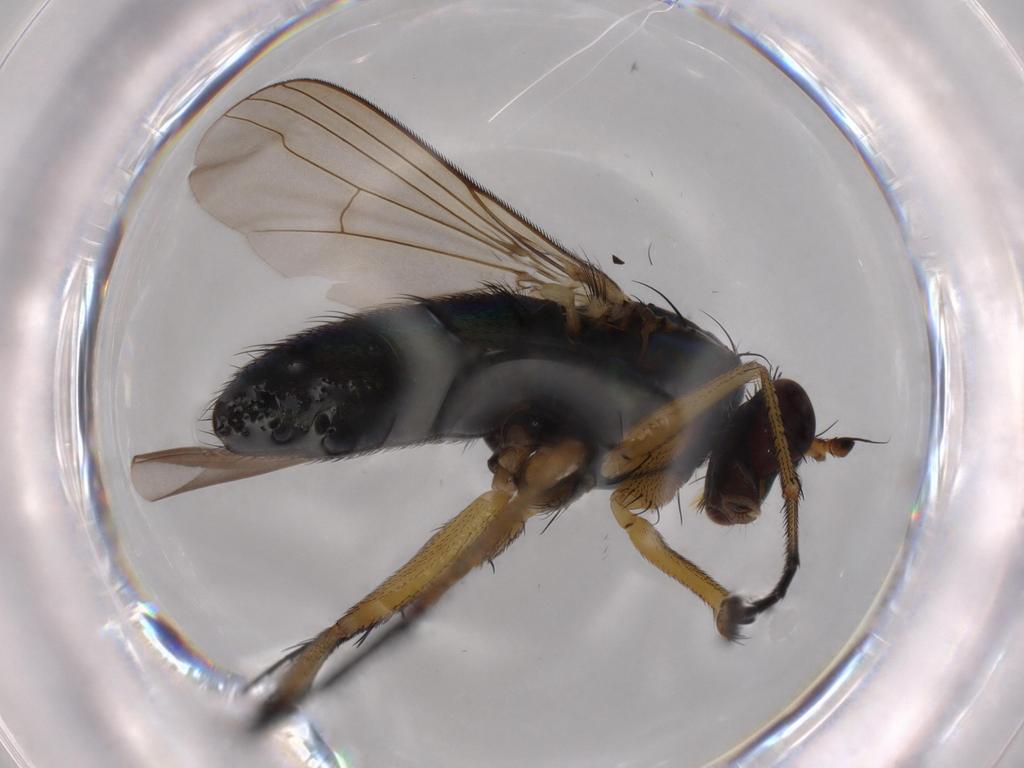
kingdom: Animalia
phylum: Arthropoda
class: Insecta
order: Diptera
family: Dolichopodidae
